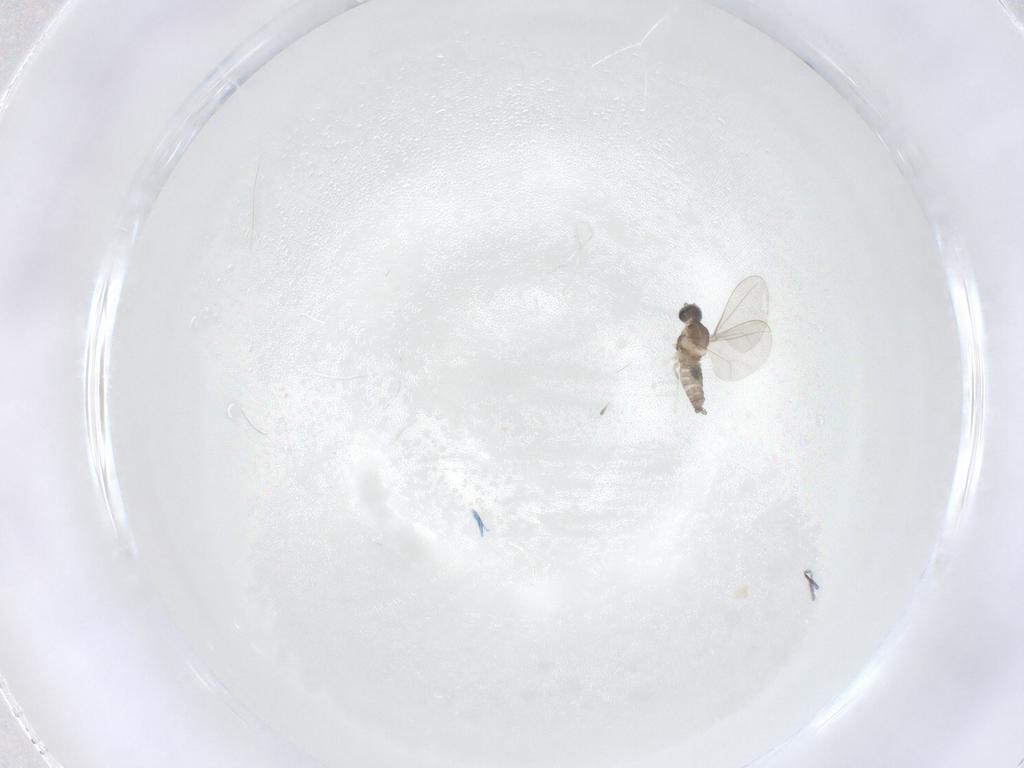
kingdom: Animalia
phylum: Arthropoda
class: Insecta
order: Diptera
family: Cecidomyiidae
